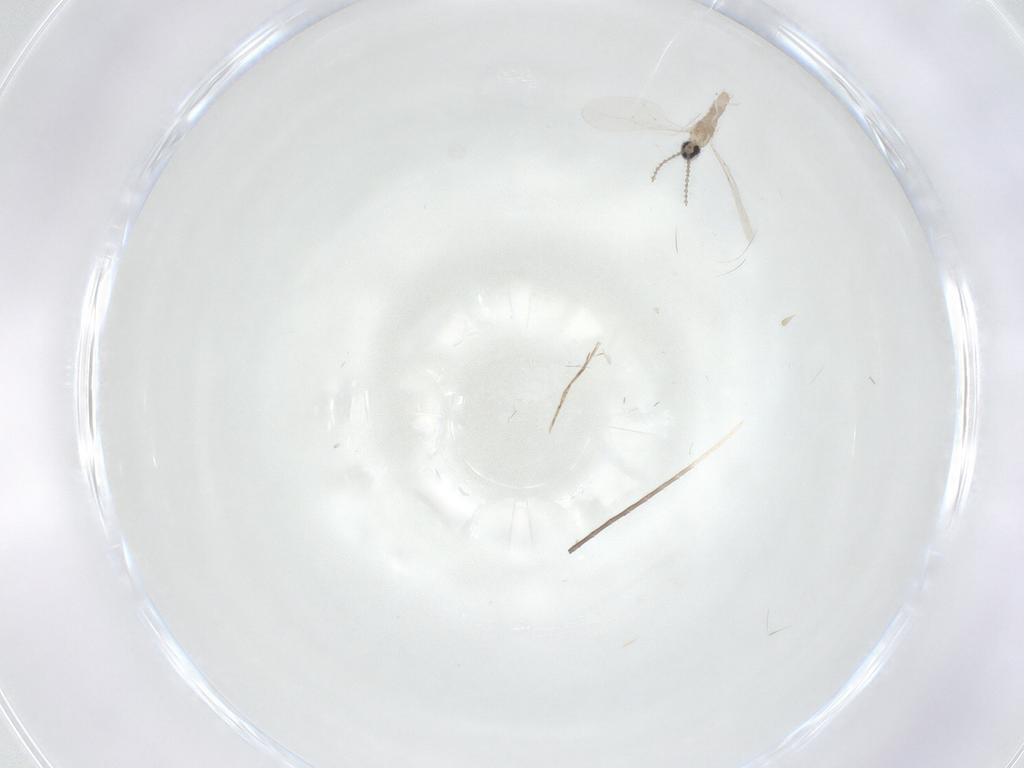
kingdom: Animalia
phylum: Arthropoda
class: Insecta
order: Diptera
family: Cecidomyiidae
